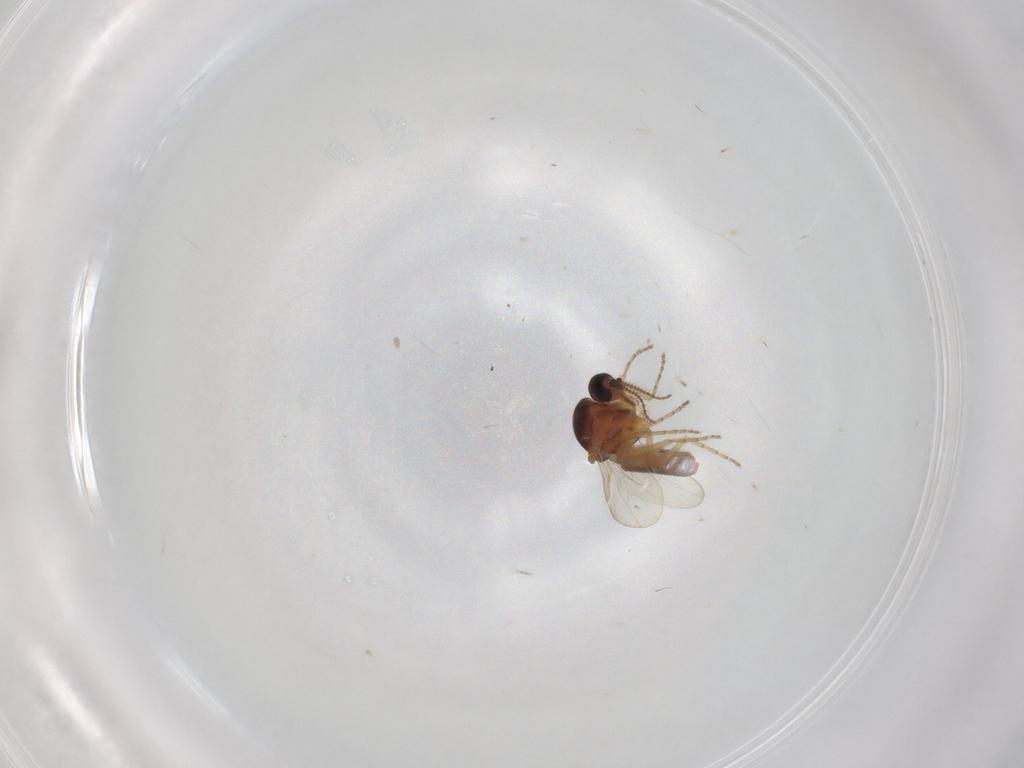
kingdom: Animalia
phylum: Arthropoda
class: Insecta
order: Diptera
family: Ceratopogonidae
